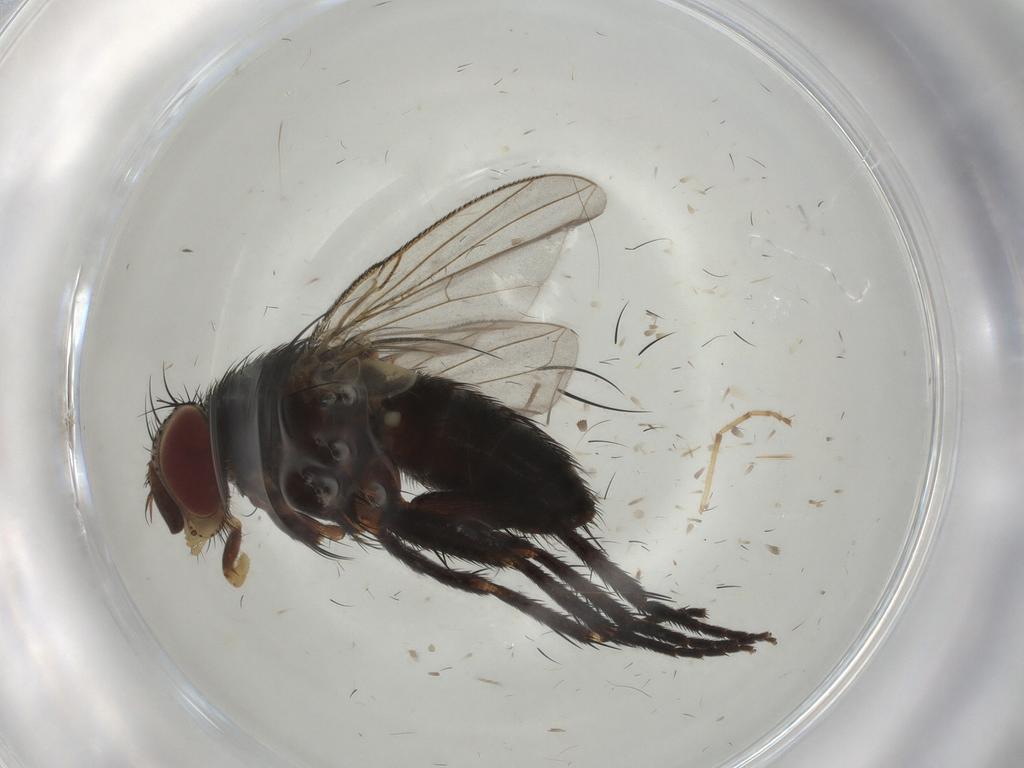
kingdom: Animalia
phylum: Arthropoda
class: Insecta
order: Diptera
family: Tachinidae
